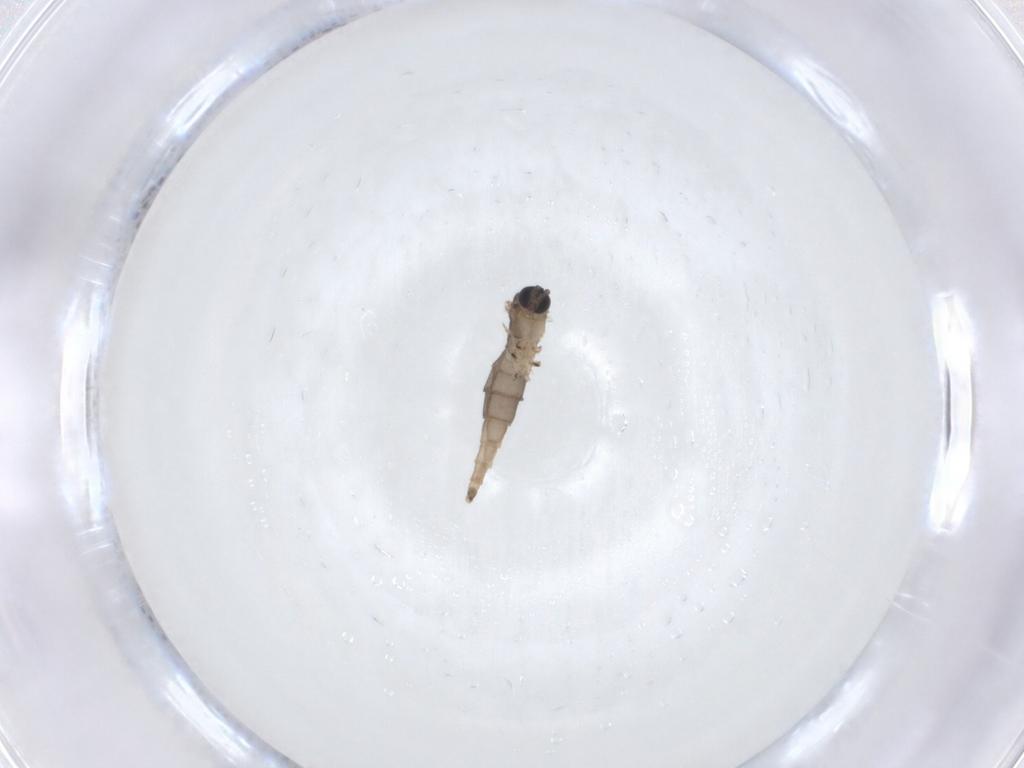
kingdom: Animalia
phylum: Arthropoda
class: Insecta
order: Diptera
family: Sciaridae
